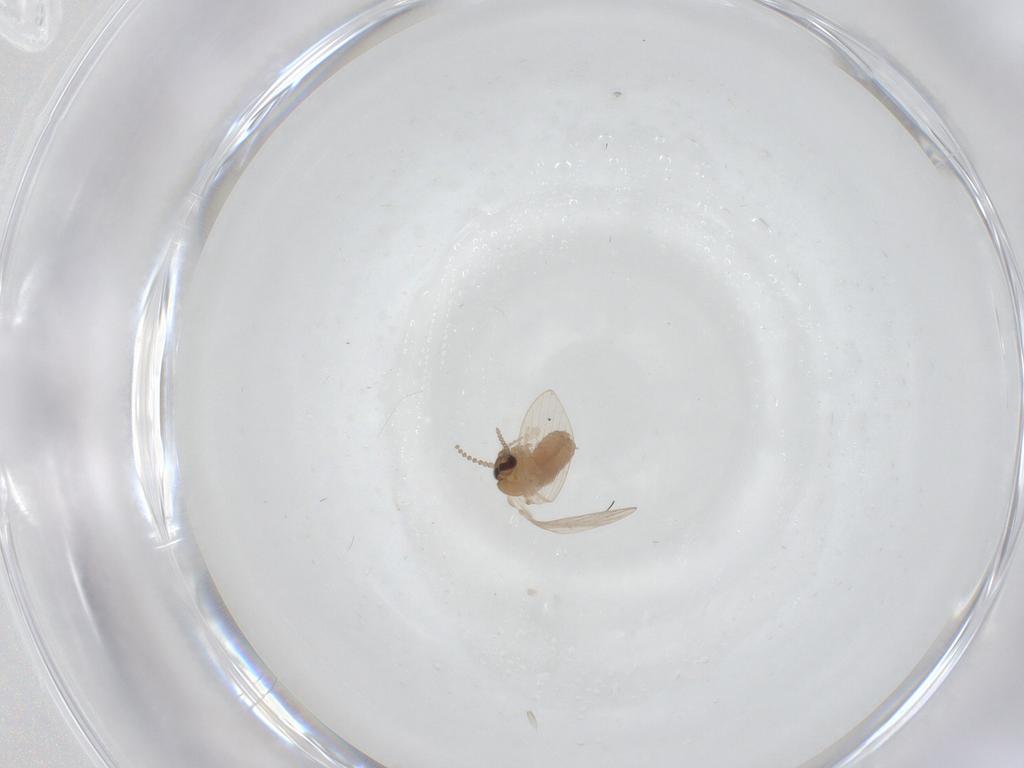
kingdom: Animalia
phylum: Arthropoda
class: Insecta
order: Diptera
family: Psychodidae
